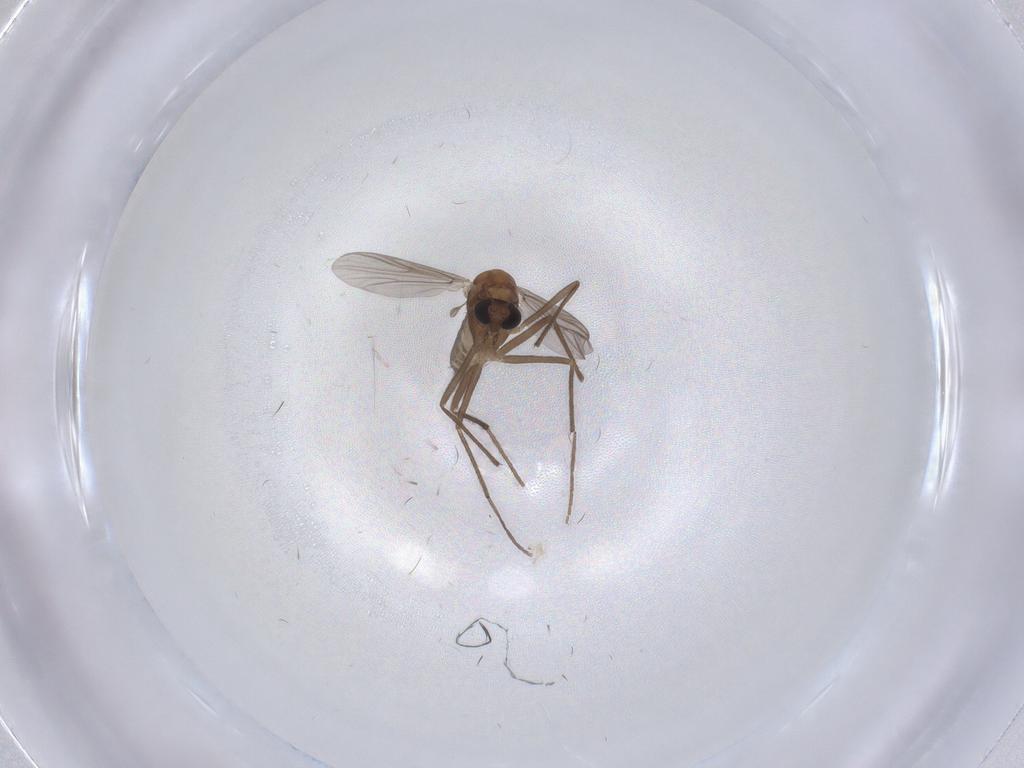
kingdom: Animalia
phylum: Arthropoda
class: Insecta
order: Diptera
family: Chironomidae
